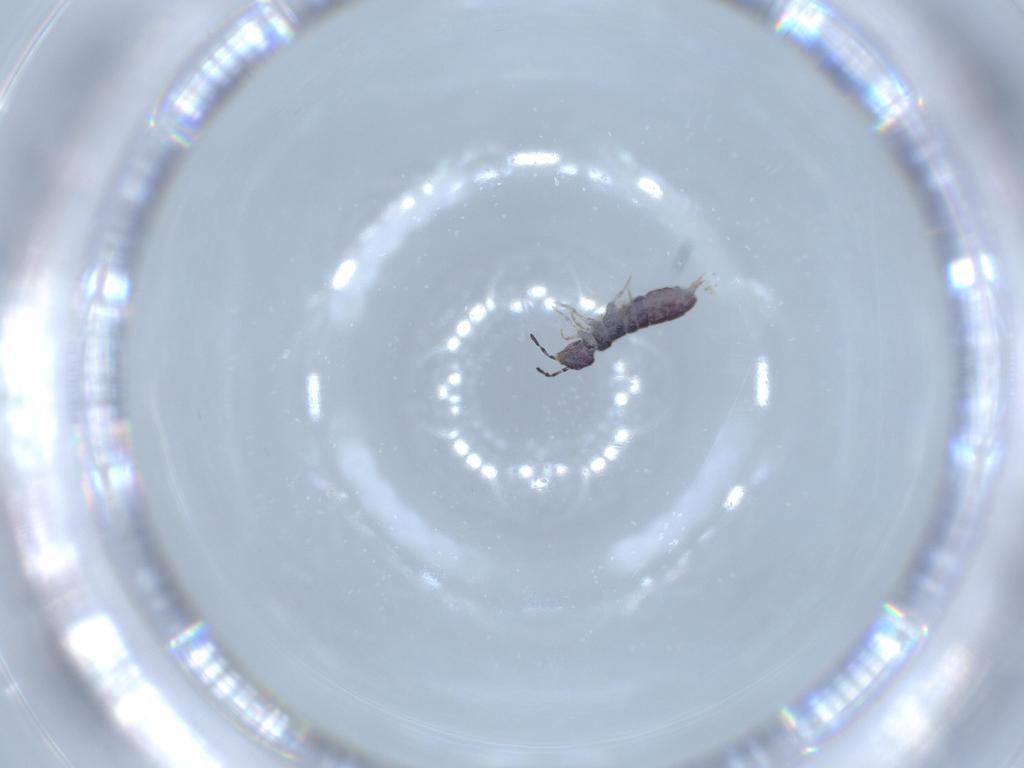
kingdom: Animalia
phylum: Arthropoda
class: Collembola
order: Entomobryomorpha
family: Isotomidae
